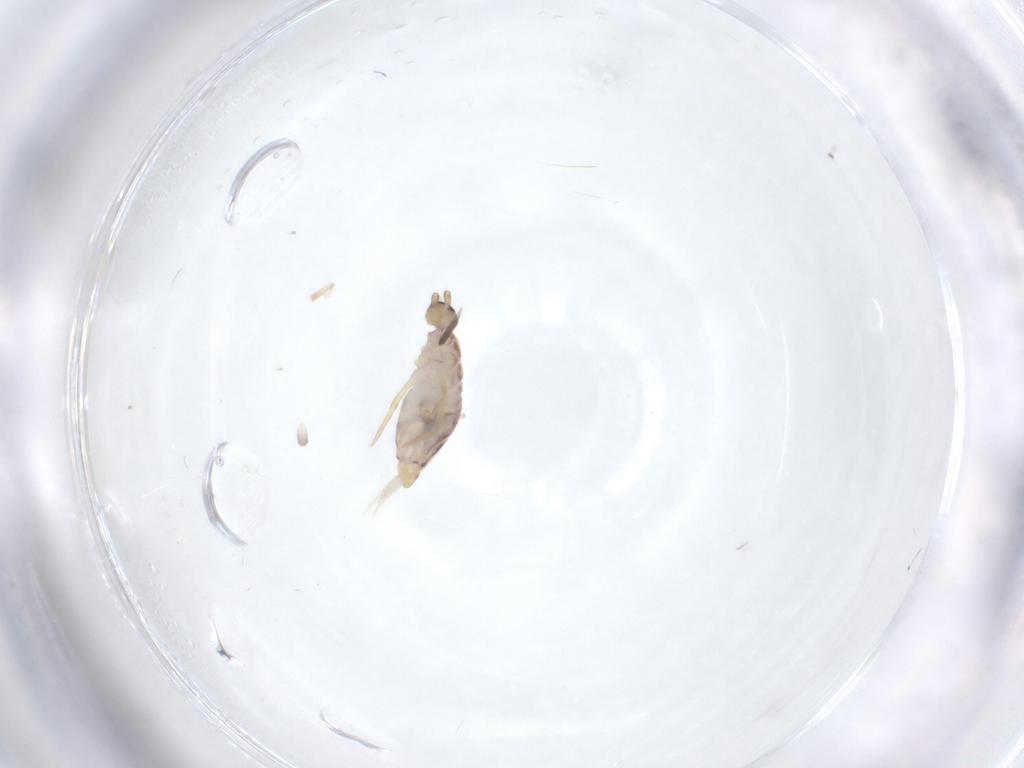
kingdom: Animalia
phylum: Arthropoda
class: Collembola
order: Entomobryomorpha
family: Entomobryidae
